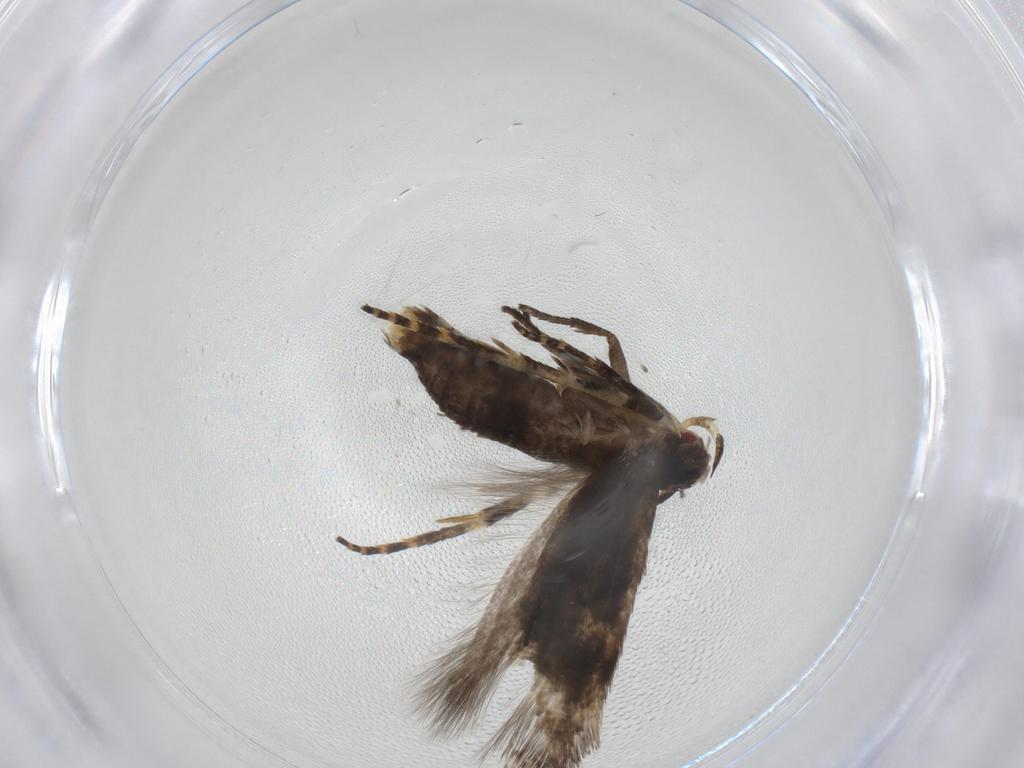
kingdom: Animalia
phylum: Arthropoda
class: Insecta
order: Lepidoptera
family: Momphidae
